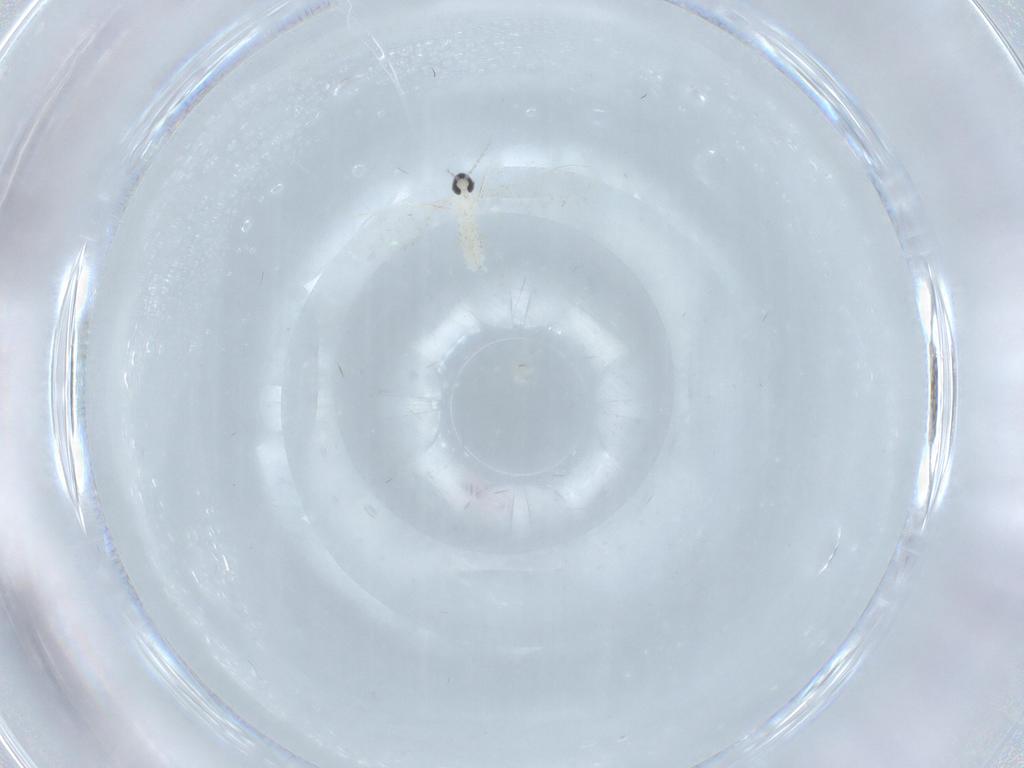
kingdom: Animalia
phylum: Arthropoda
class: Insecta
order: Diptera
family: Cecidomyiidae
